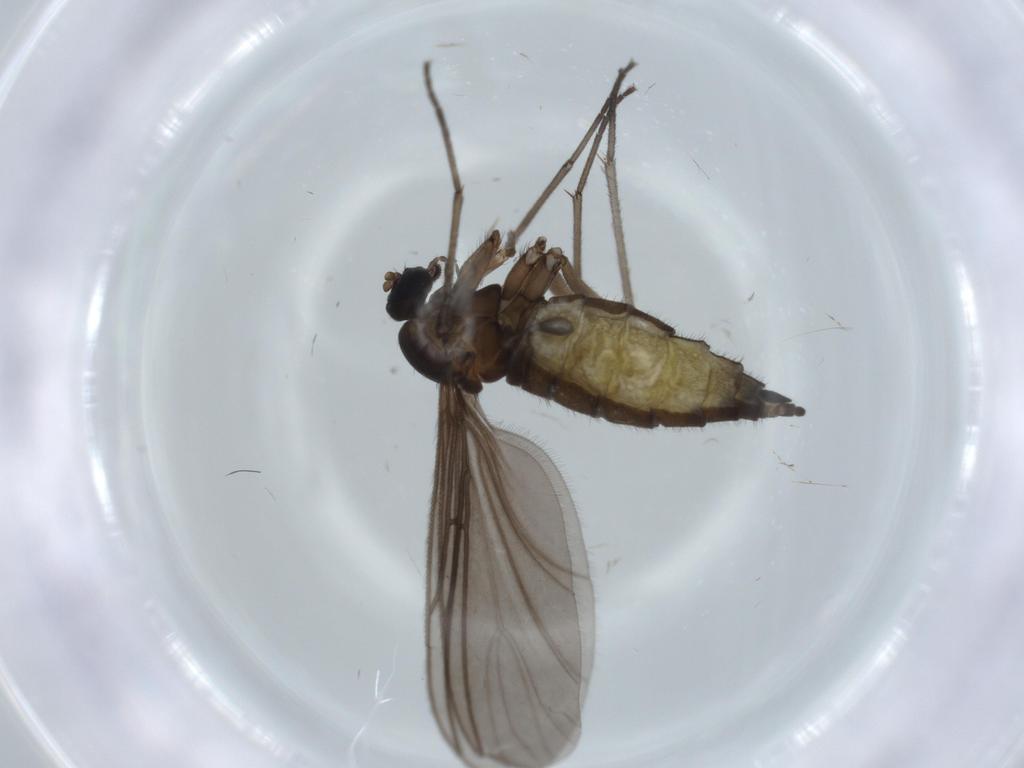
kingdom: Animalia
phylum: Arthropoda
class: Insecta
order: Diptera
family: Sciaridae
